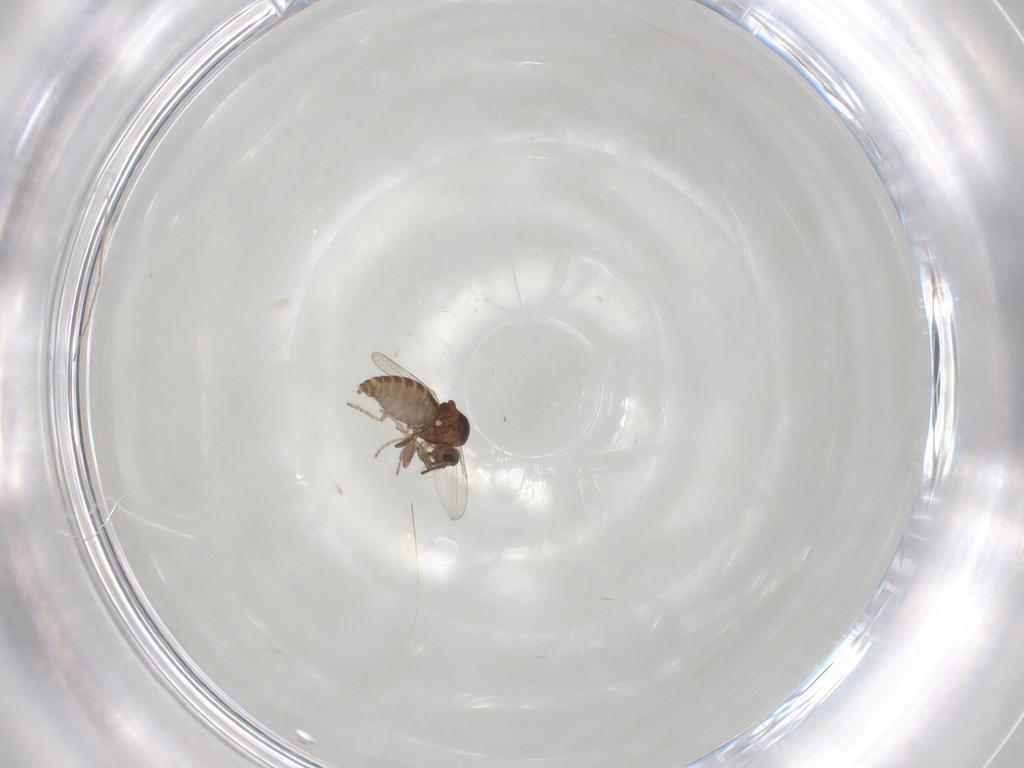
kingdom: Animalia
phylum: Arthropoda
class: Insecta
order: Diptera
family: Ceratopogonidae
